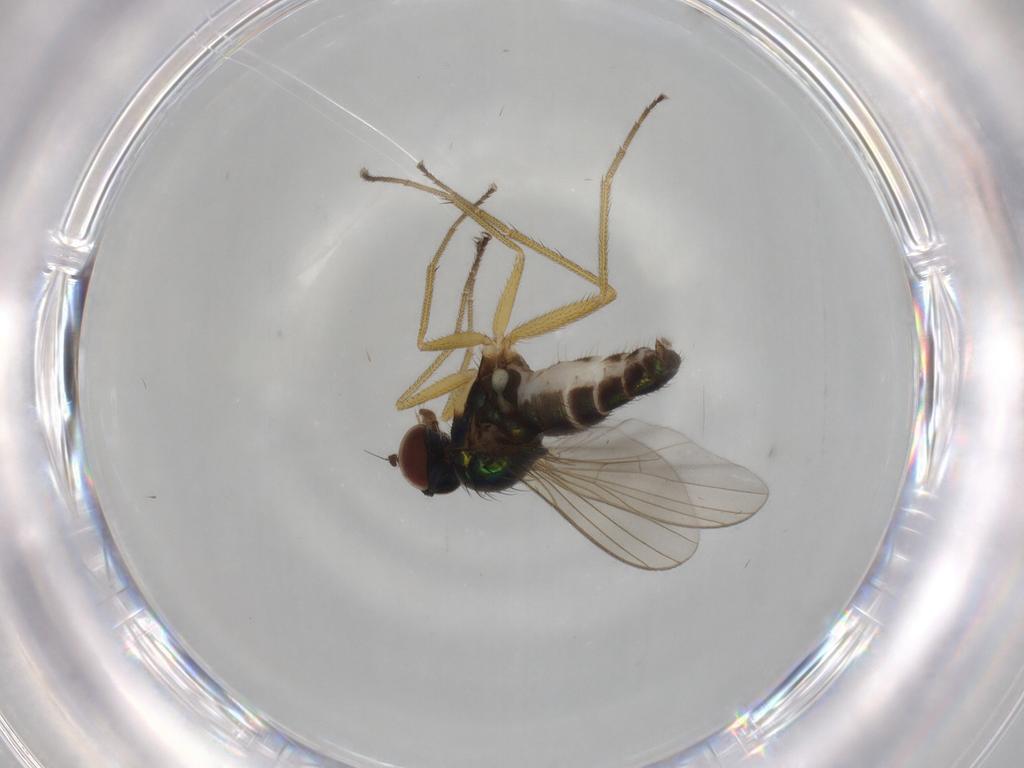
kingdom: Animalia
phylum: Arthropoda
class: Insecta
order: Diptera
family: Dolichopodidae
